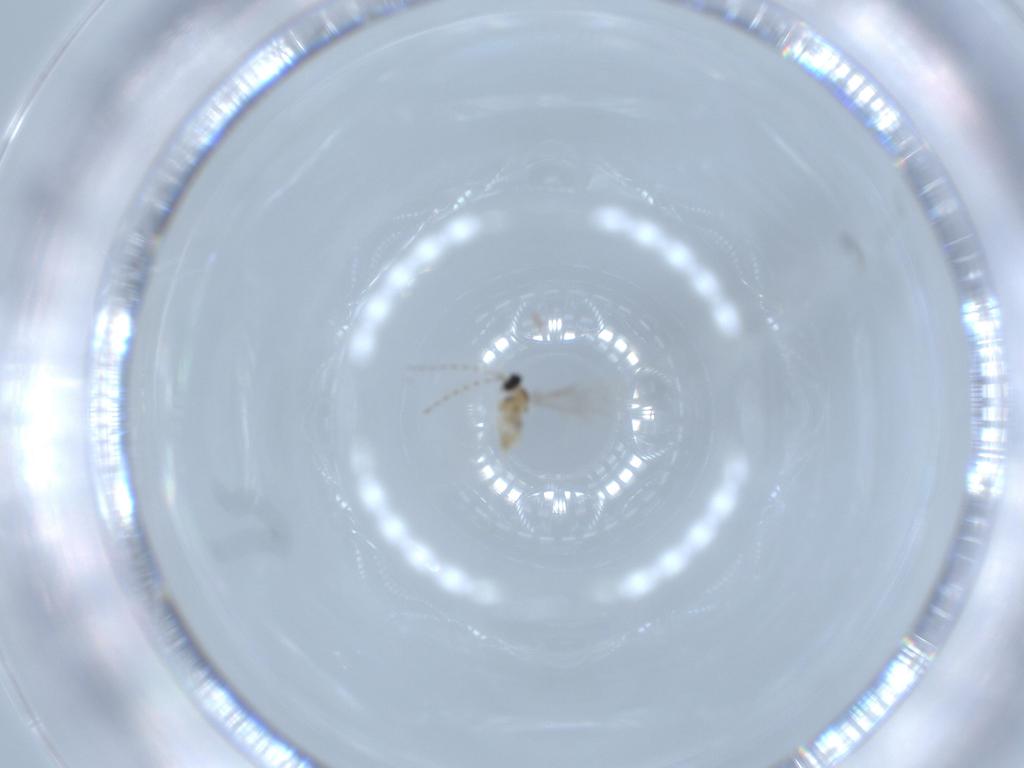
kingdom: Animalia
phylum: Arthropoda
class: Insecta
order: Diptera
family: Cecidomyiidae
